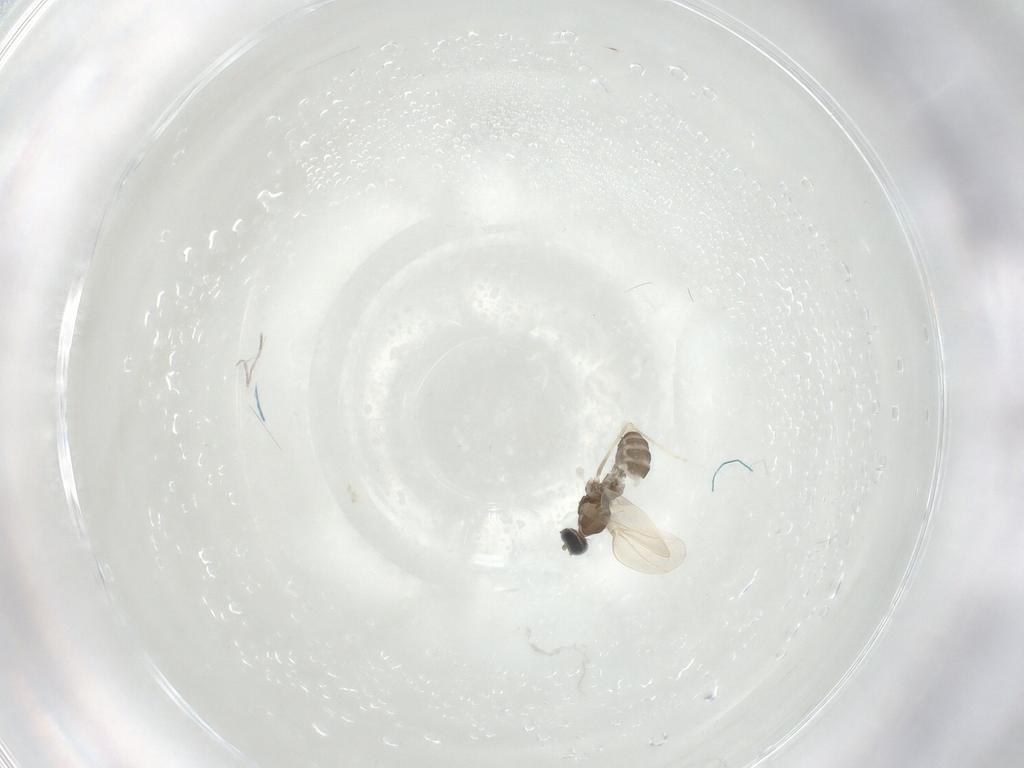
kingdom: Animalia
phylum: Arthropoda
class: Insecta
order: Diptera
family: Cecidomyiidae
